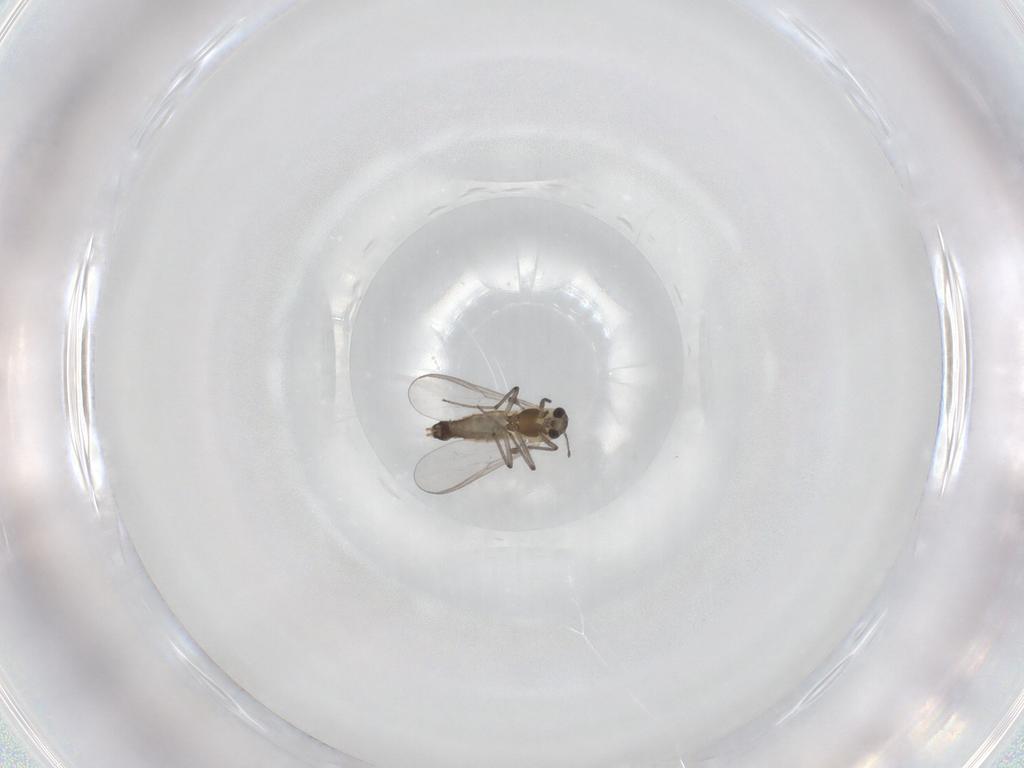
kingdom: Animalia
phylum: Arthropoda
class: Insecta
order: Diptera
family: Chironomidae
